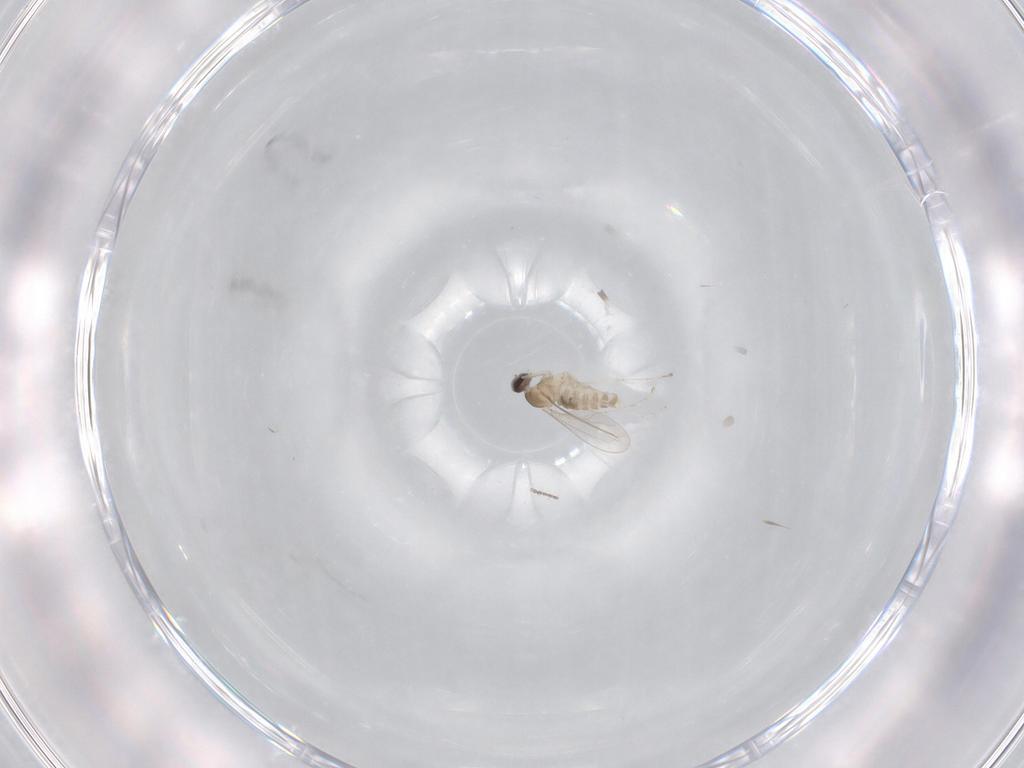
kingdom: Animalia
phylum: Arthropoda
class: Insecta
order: Diptera
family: Cecidomyiidae
